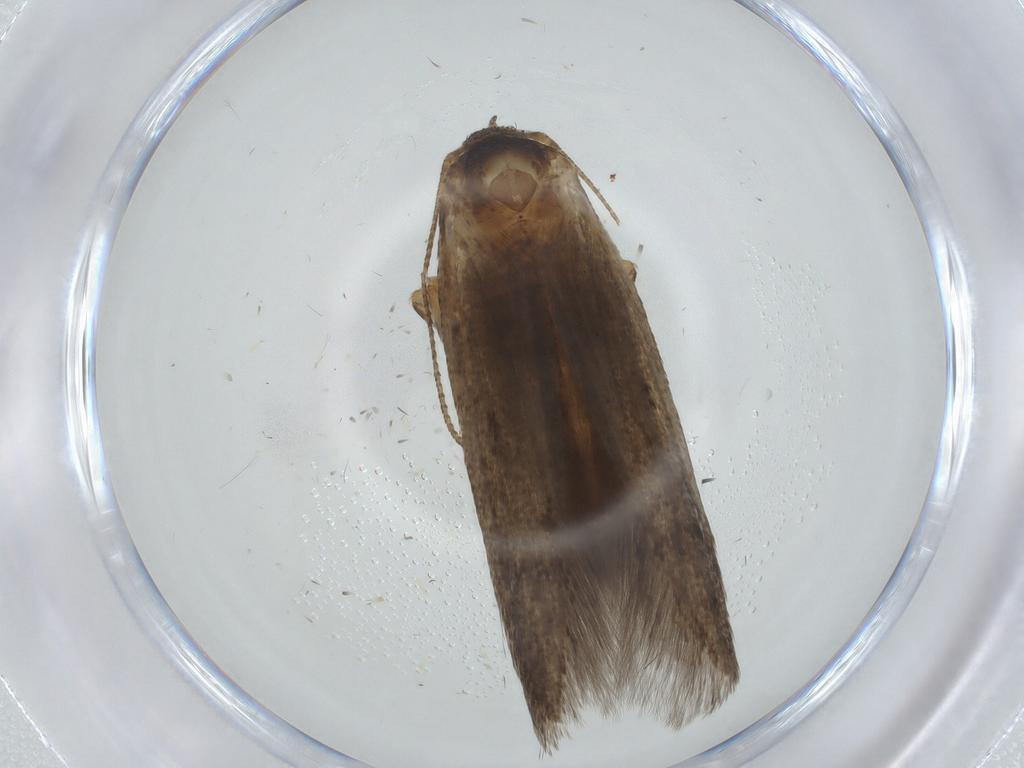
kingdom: Animalia
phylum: Arthropoda
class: Insecta
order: Lepidoptera
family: Blastobasidae
